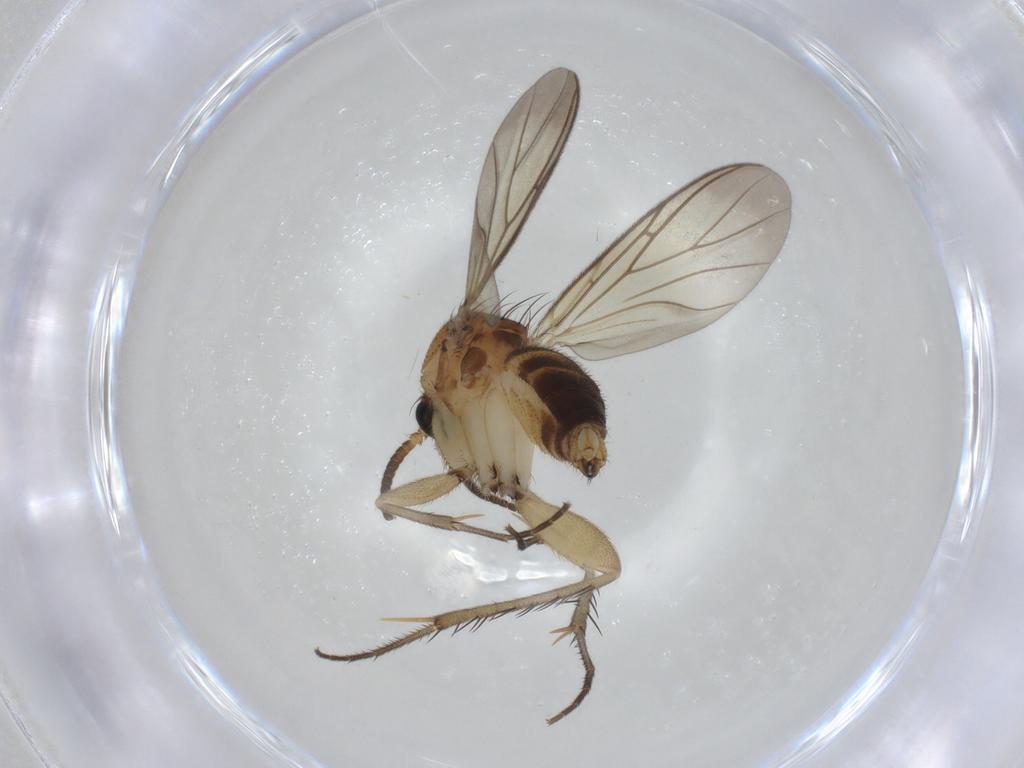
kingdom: Animalia
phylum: Arthropoda
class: Insecta
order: Diptera
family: Mycetophilidae
